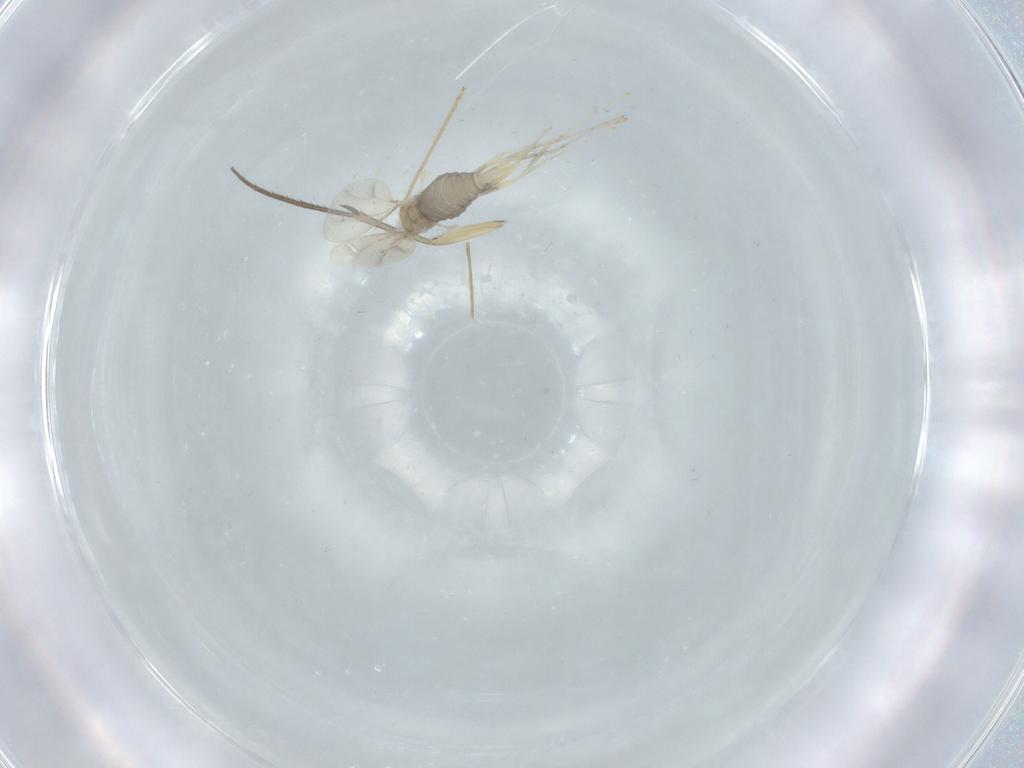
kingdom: Animalia
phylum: Arthropoda
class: Insecta
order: Diptera
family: Mycetophilidae
